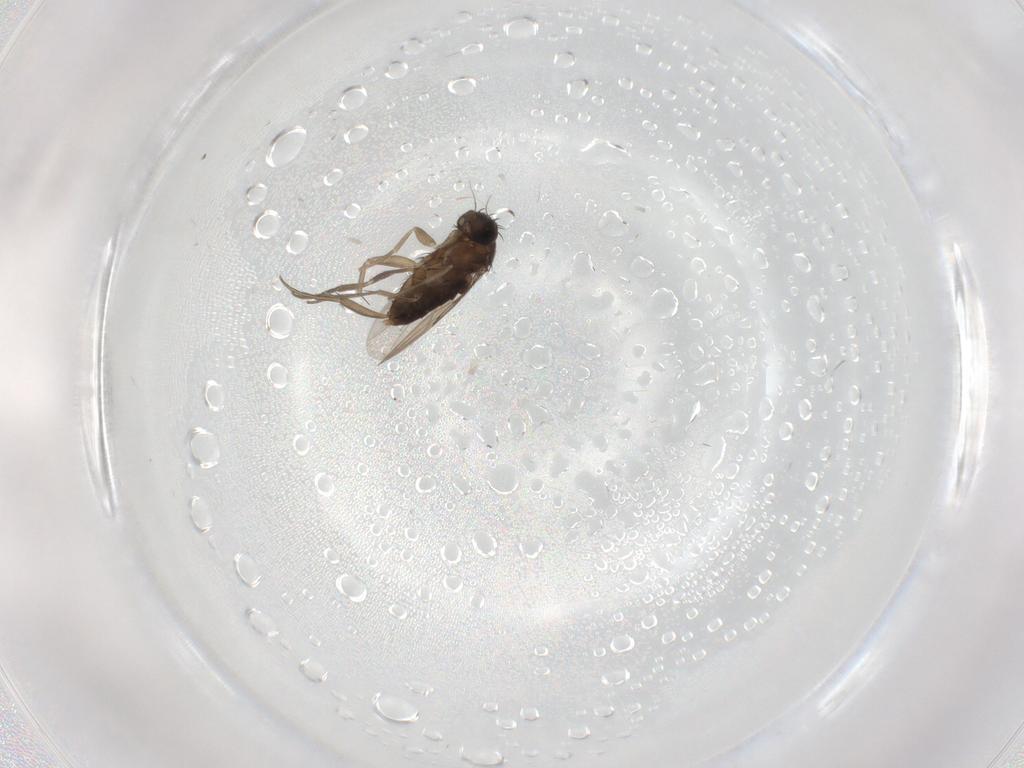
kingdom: Animalia
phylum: Arthropoda
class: Insecta
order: Diptera
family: Phoridae
